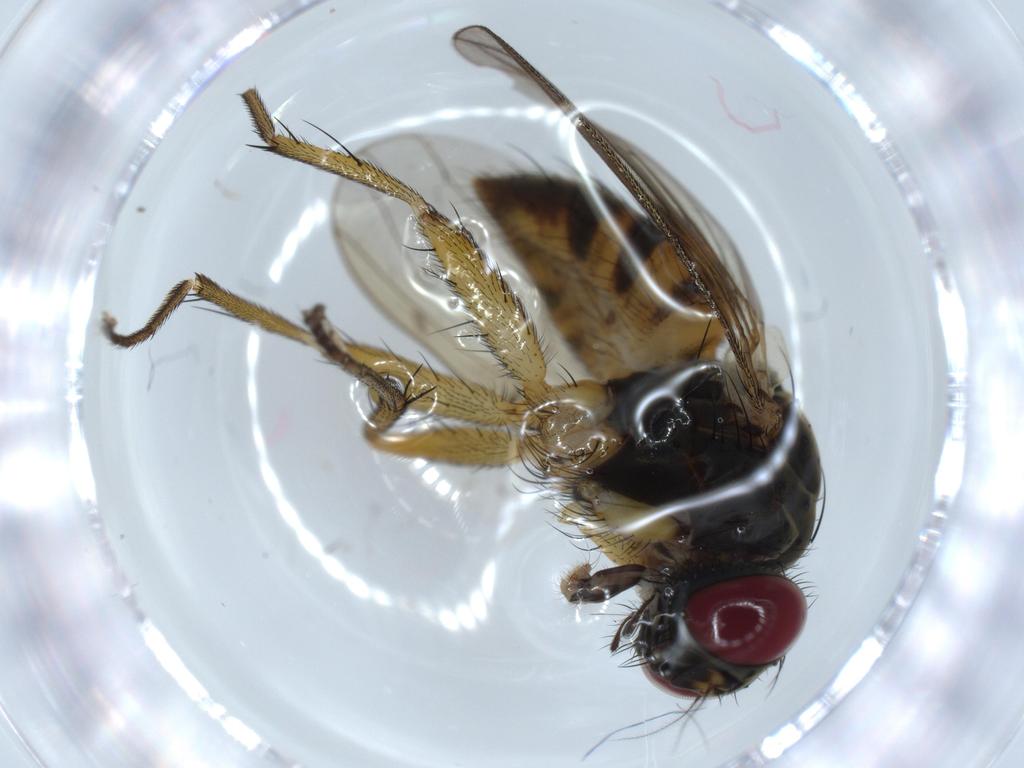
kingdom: Animalia
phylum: Arthropoda
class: Insecta
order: Diptera
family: Muscidae
